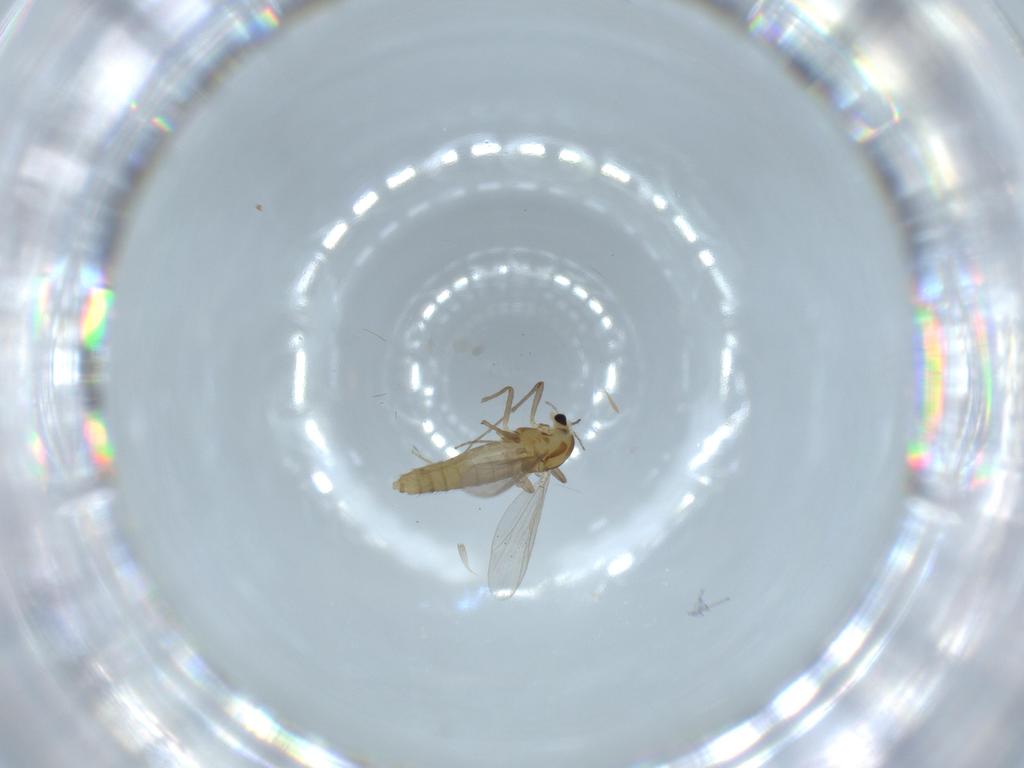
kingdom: Animalia
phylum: Arthropoda
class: Insecta
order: Diptera
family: Chironomidae
